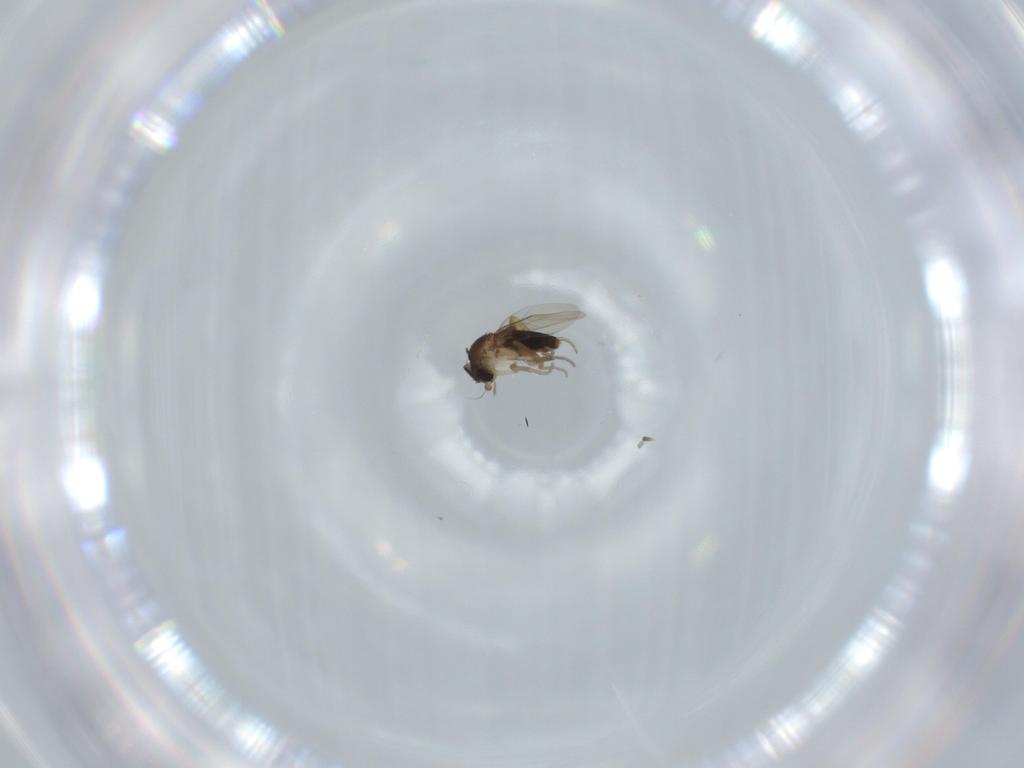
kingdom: Animalia
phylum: Arthropoda
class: Insecta
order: Diptera
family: Phoridae
